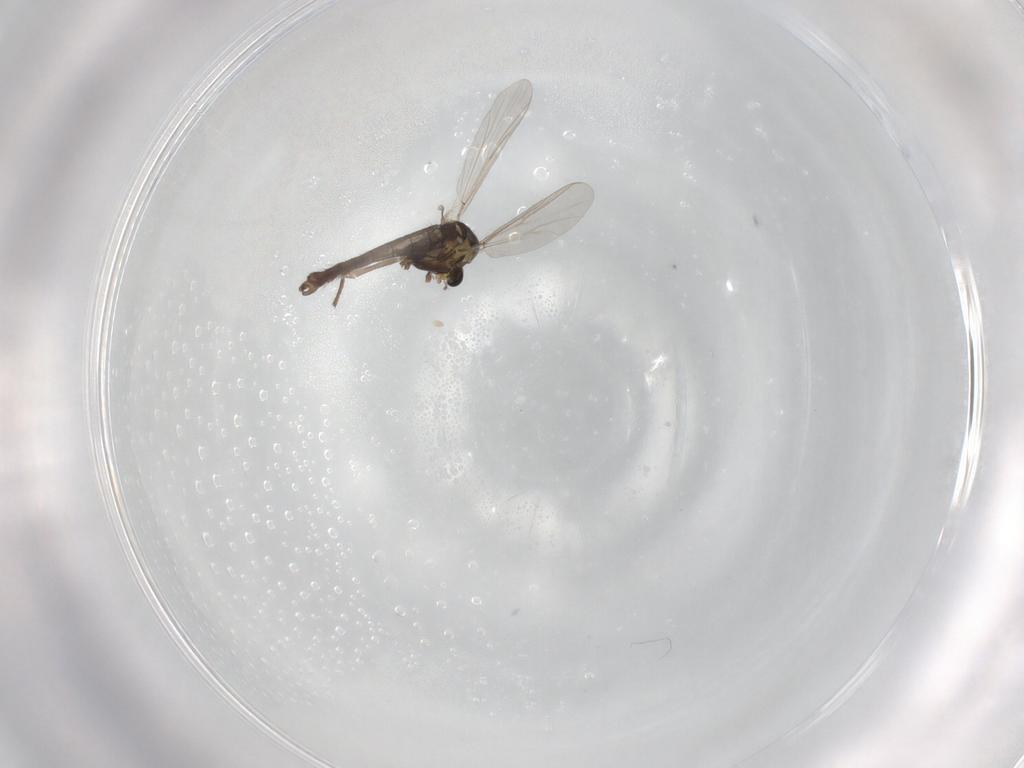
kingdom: Animalia
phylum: Arthropoda
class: Insecta
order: Diptera
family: Chironomidae
